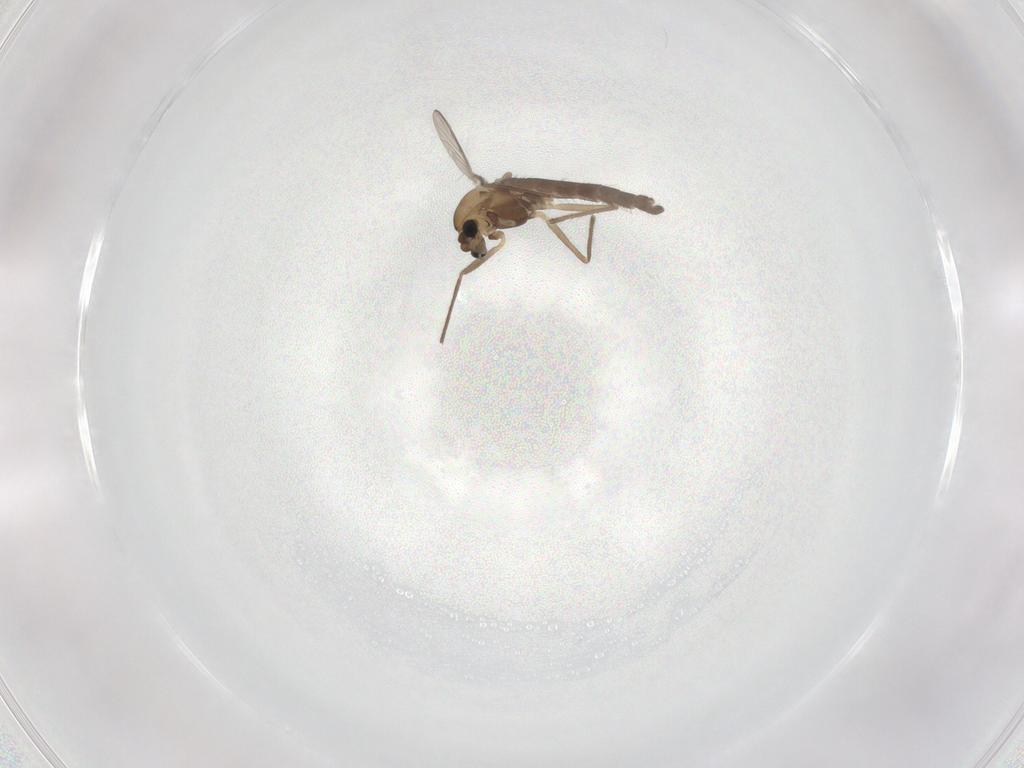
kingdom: Animalia
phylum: Arthropoda
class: Insecta
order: Diptera
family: Chironomidae
